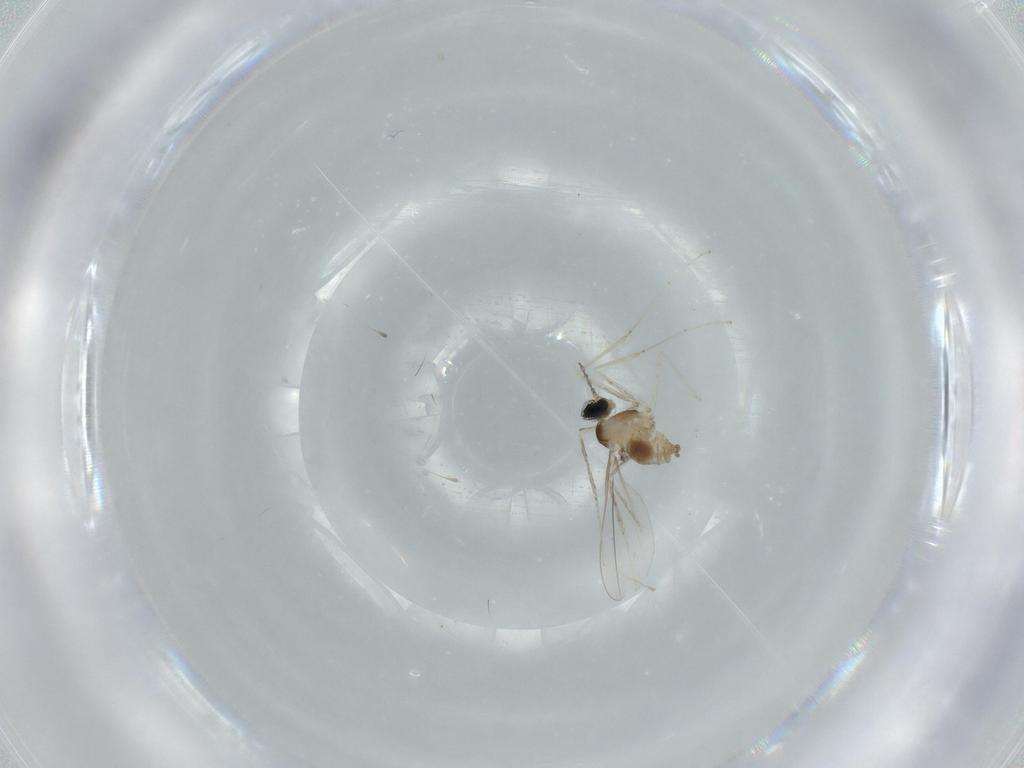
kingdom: Animalia
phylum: Arthropoda
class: Insecta
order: Diptera
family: Cecidomyiidae
